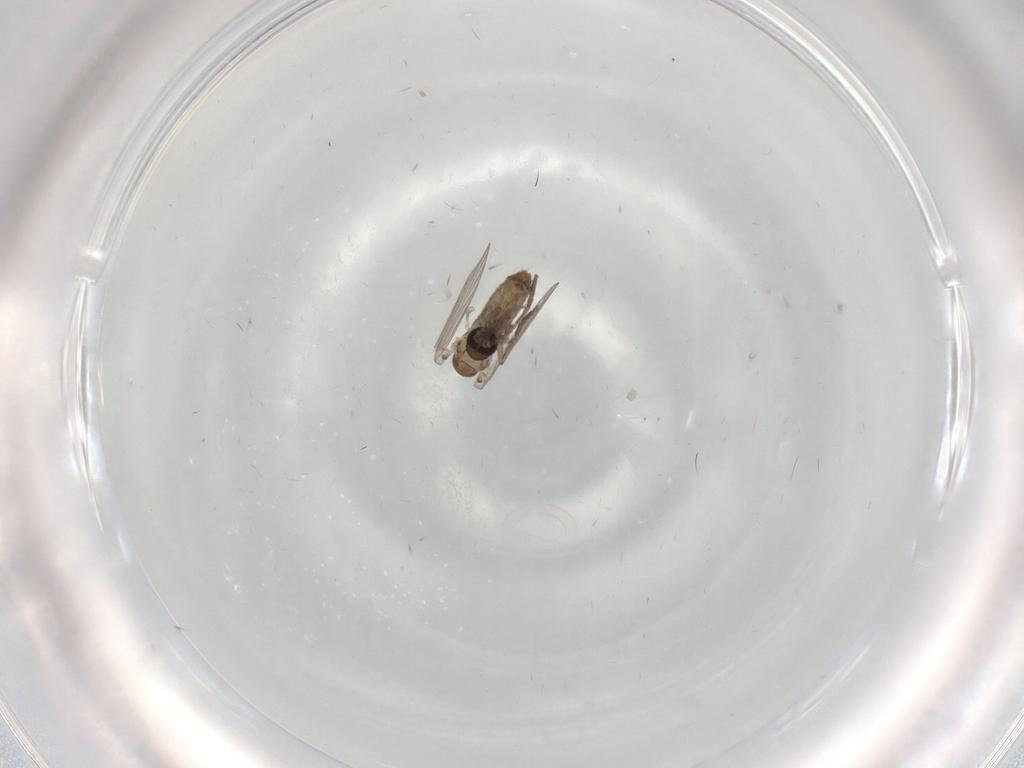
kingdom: Animalia
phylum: Arthropoda
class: Insecta
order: Diptera
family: Psychodidae
